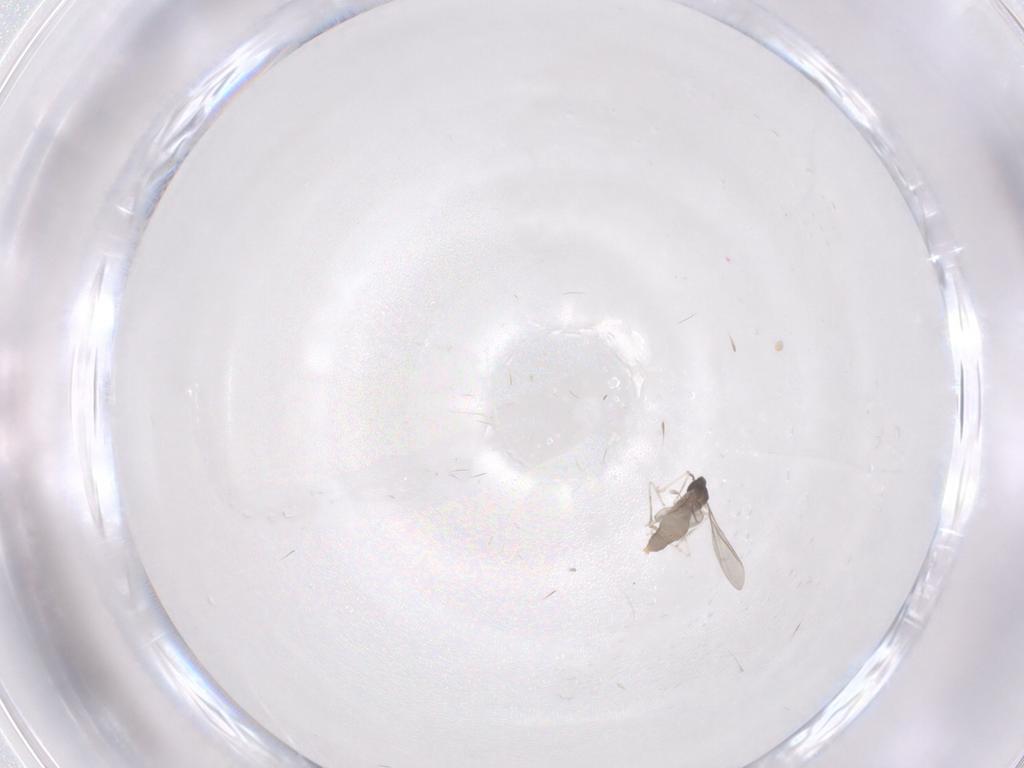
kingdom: Animalia
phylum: Arthropoda
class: Insecta
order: Diptera
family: Cecidomyiidae
